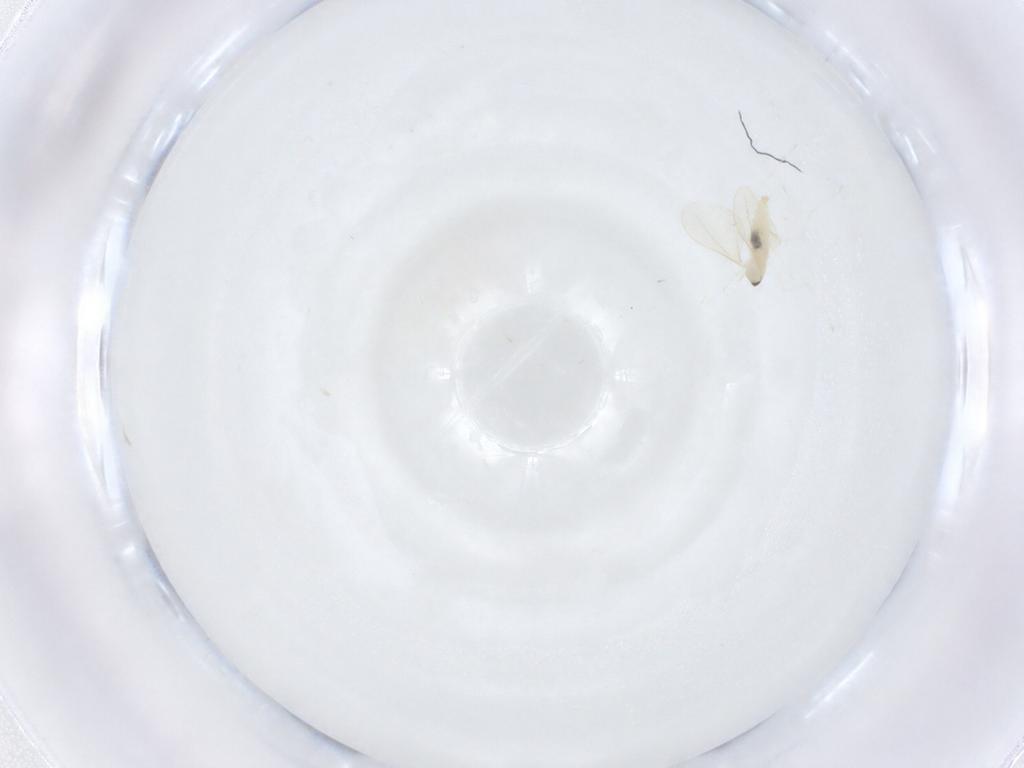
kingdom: Animalia
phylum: Arthropoda
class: Insecta
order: Diptera
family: Cecidomyiidae
